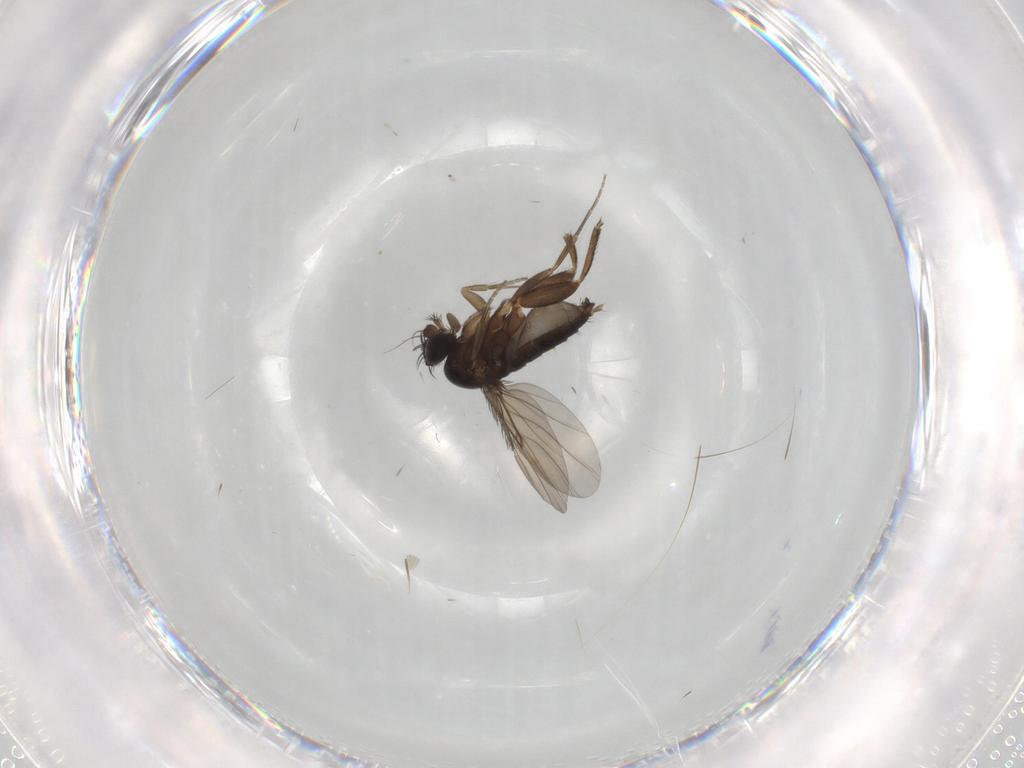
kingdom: Animalia
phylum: Arthropoda
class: Insecta
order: Diptera
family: Phoridae
